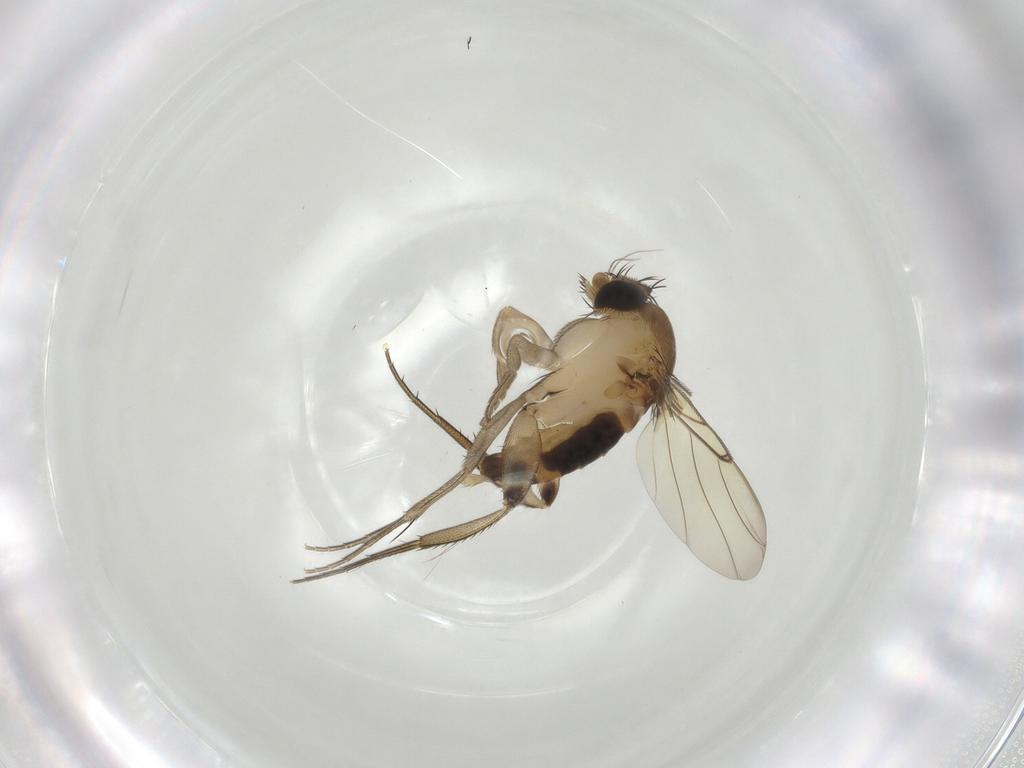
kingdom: Animalia
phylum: Arthropoda
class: Insecta
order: Diptera
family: Phoridae
